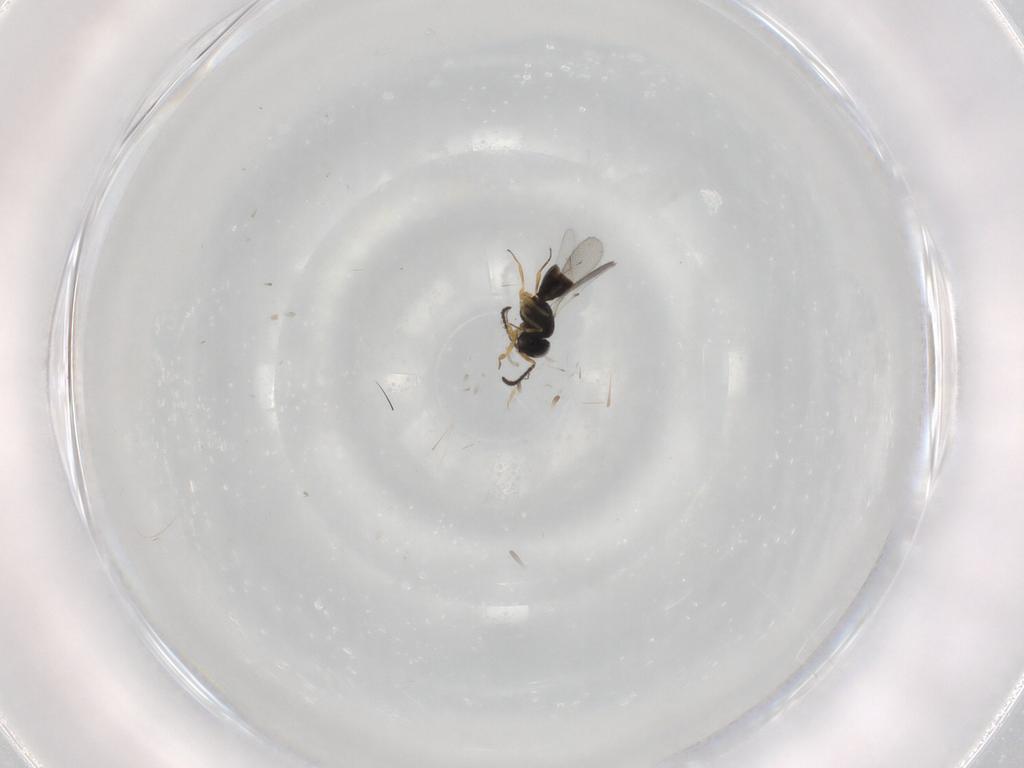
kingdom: Animalia
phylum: Arthropoda
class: Insecta
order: Hymenoptera
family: Scelionidae
